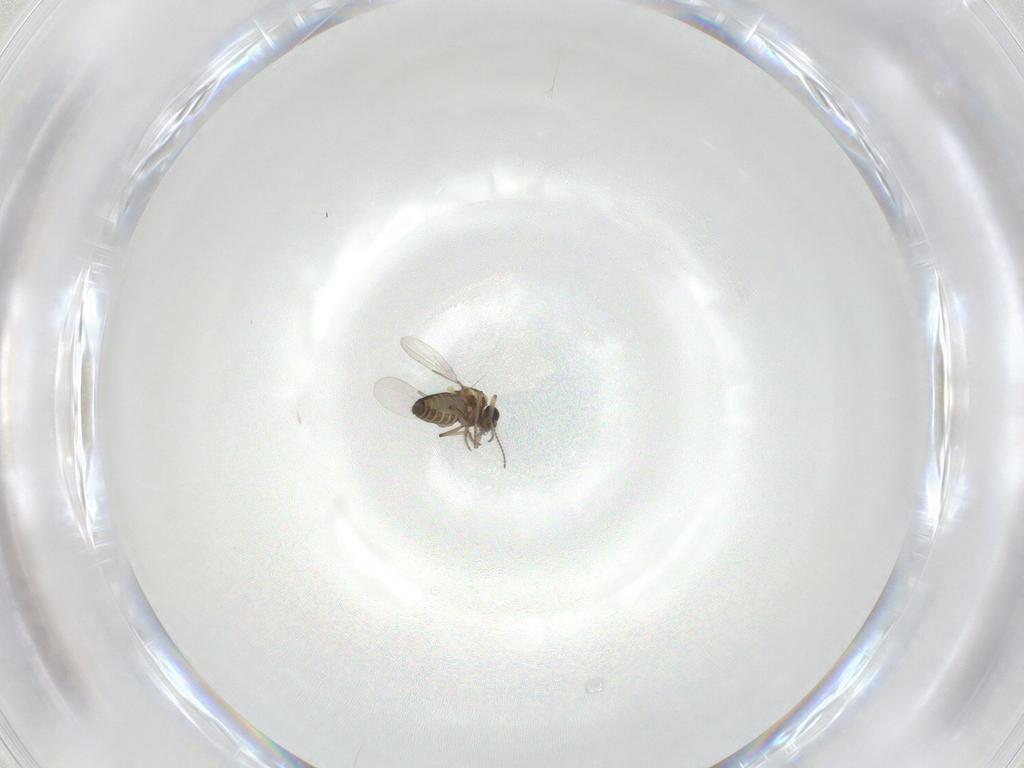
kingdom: Animalia
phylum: Arthropoda
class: Insecta
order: Diptera
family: Ceratopogonidae
